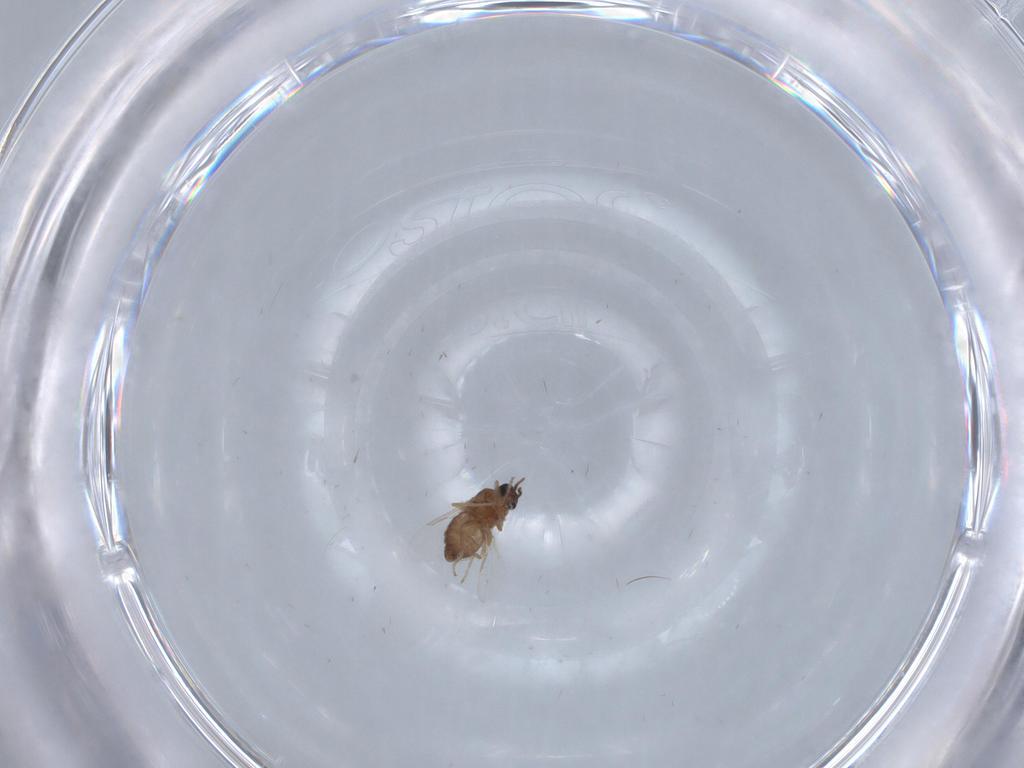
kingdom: Animalia
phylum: Arthropoda
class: Insecta
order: Diptera
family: Ceratopogonidae
